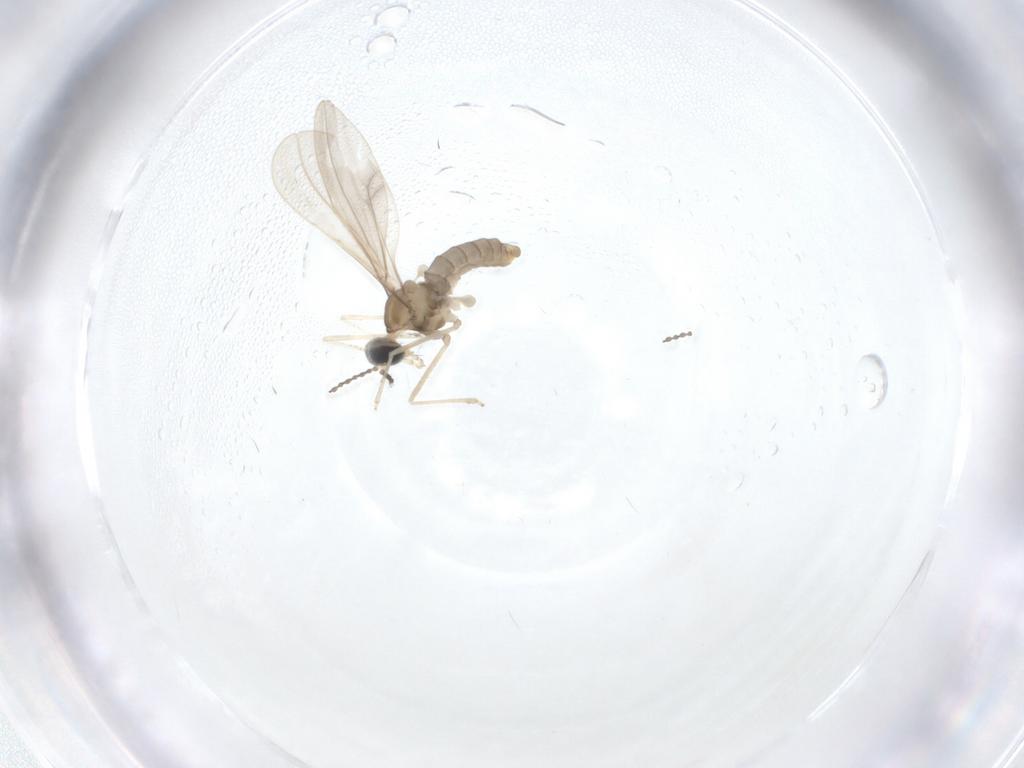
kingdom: Animalia
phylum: Arthropoda
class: Insecta
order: Diptera
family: Cecidomyiidae
